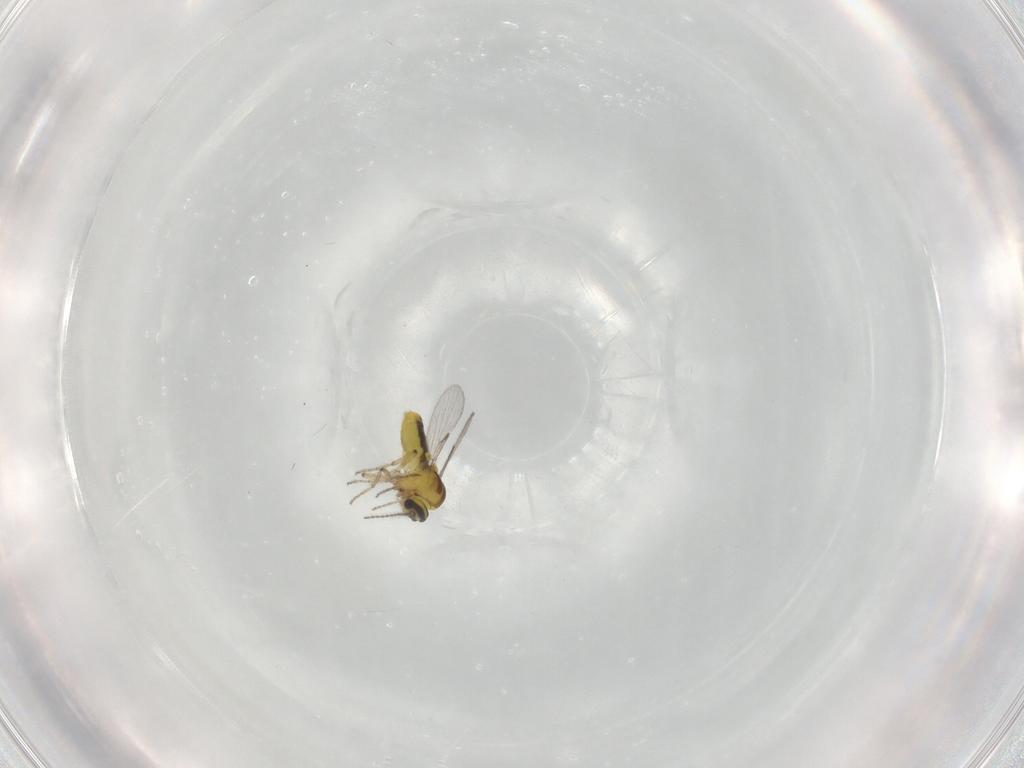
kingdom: Animalia
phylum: Arthropoda
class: Insecta
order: Diptera
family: Ceratopogonidae
